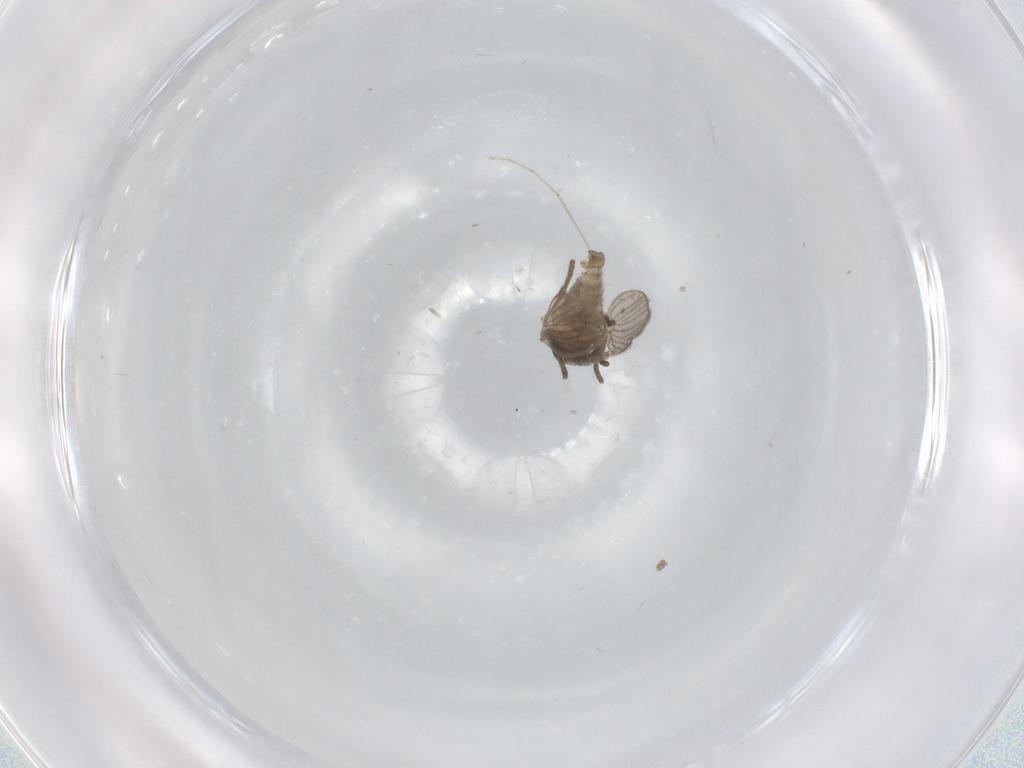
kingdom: Animalia
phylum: Arthropoda
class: Insecta
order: Diptera
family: Cecidomyiidae
